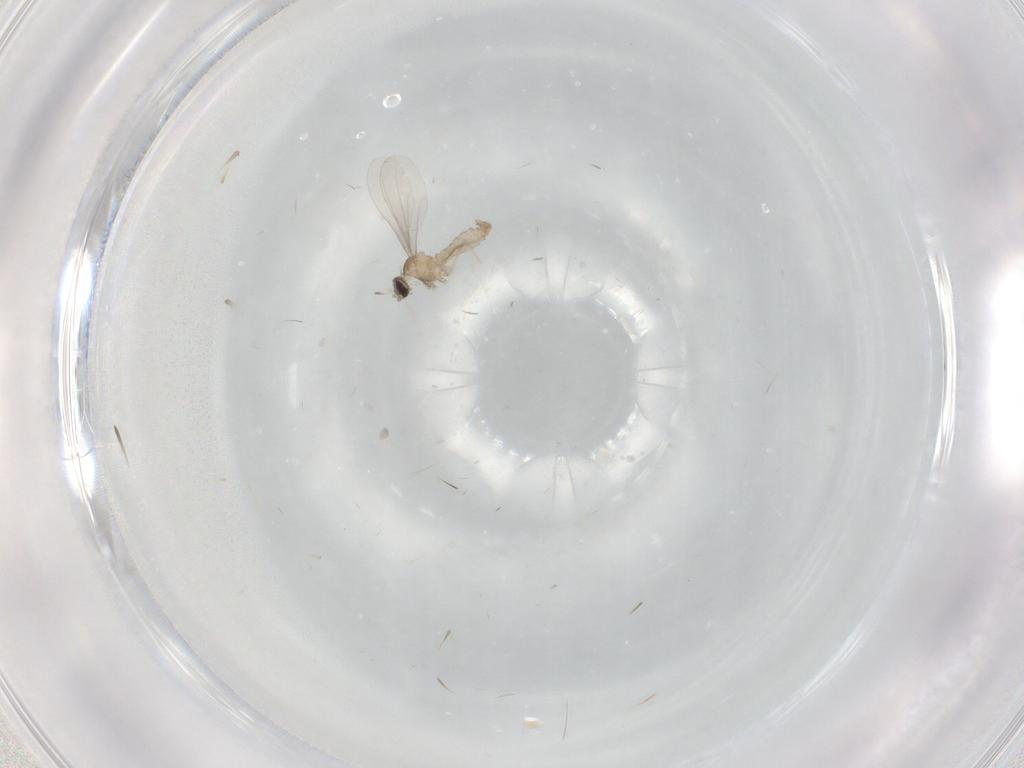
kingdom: Animalia
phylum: Arthropoda
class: Insecta
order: Diptera
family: Cecidomyiidae
